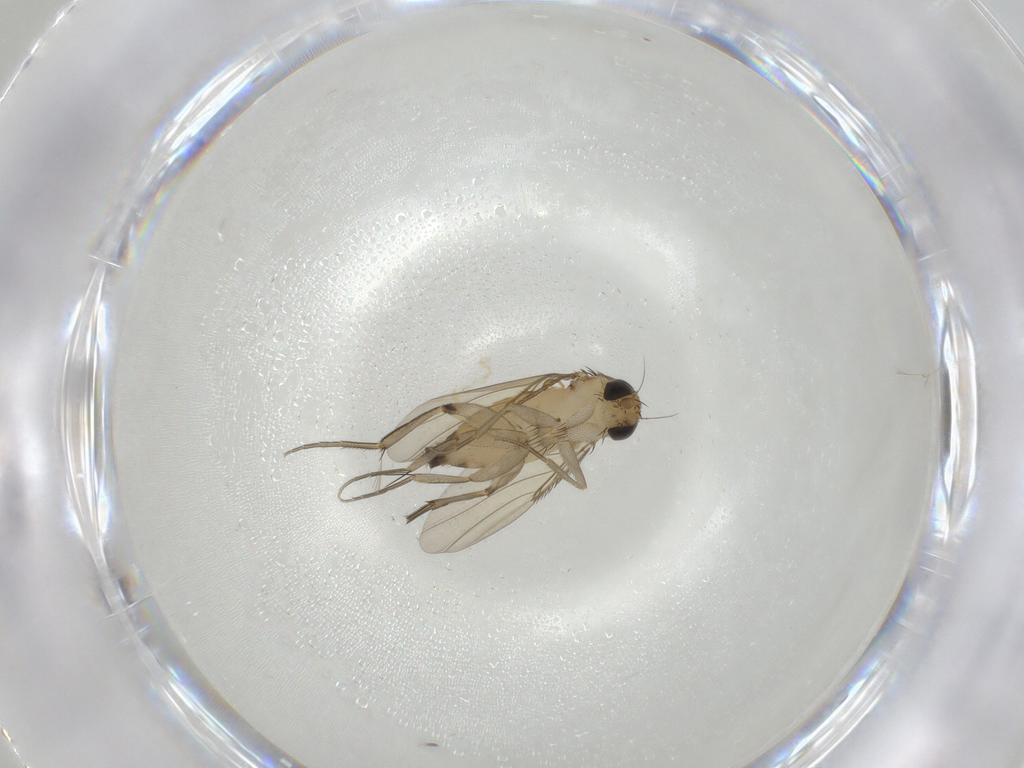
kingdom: Animalia
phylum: Arthropoda
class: Insecta
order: Diptera
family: Phoridae
